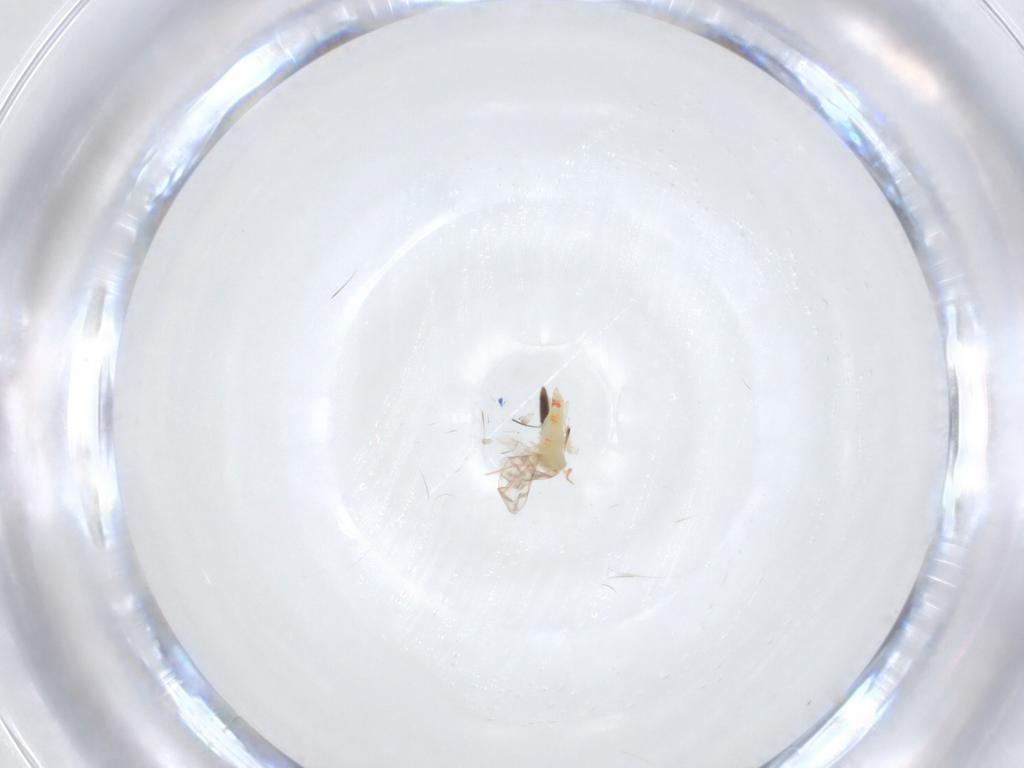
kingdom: Animalia
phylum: Arthropoda
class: Insecta
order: Hemiptera
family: Aleyrodidae
